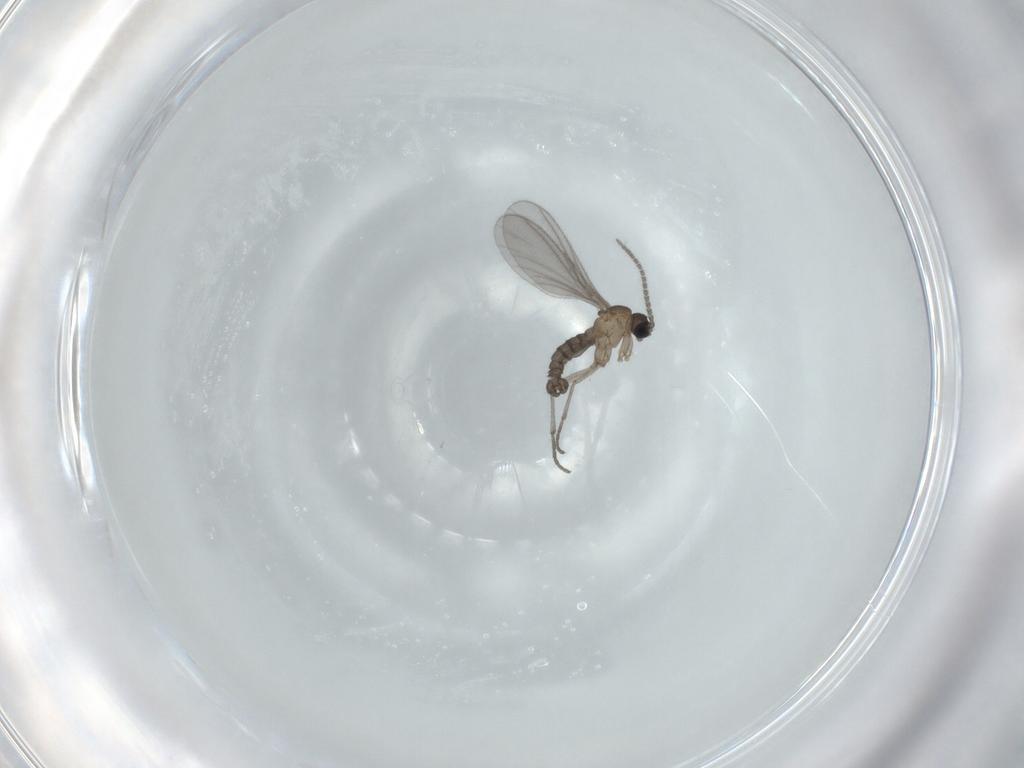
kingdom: Animalia
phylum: Arthropoda
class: Insecta
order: Diptera
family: Sciaridae
